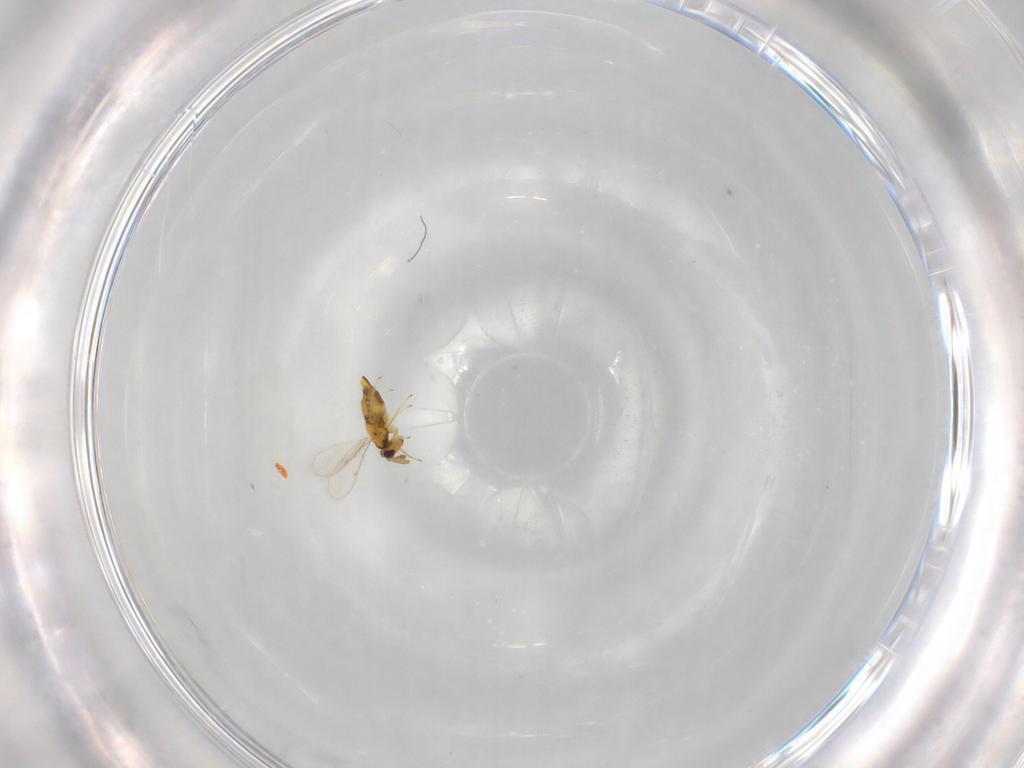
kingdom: Animalia
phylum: Arthropoda
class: Insecta
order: Hymenoptera
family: Aphelinidae
